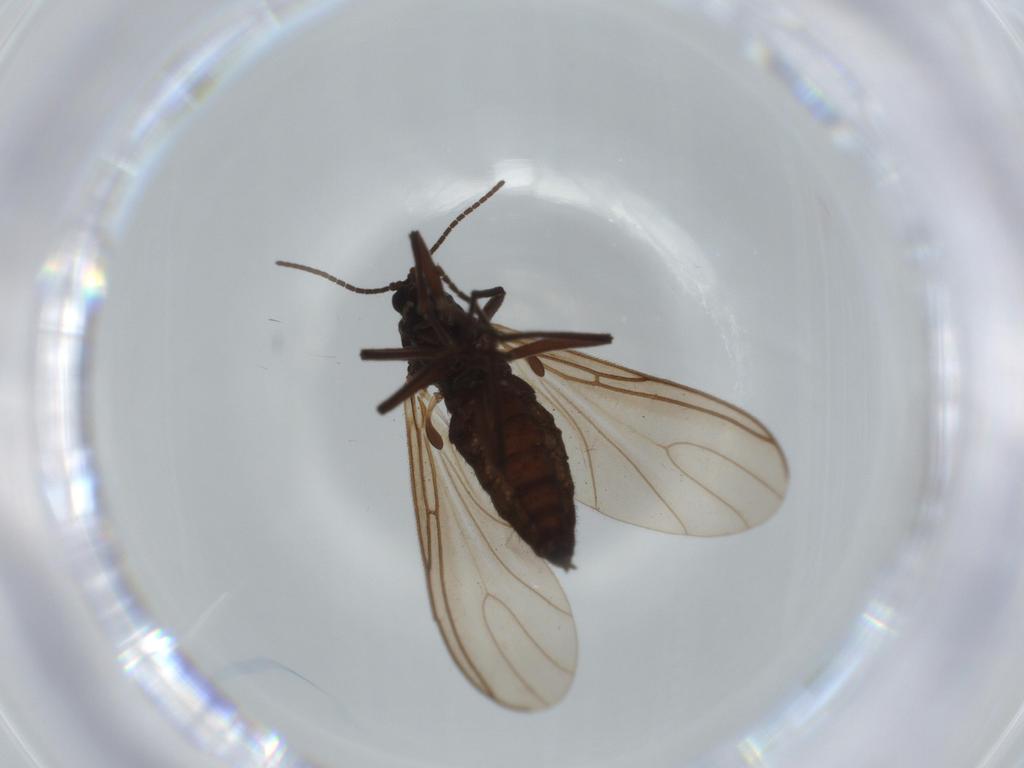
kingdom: Animalia
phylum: Arthropoda
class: Insecta
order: Diptera
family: Sciaridae
